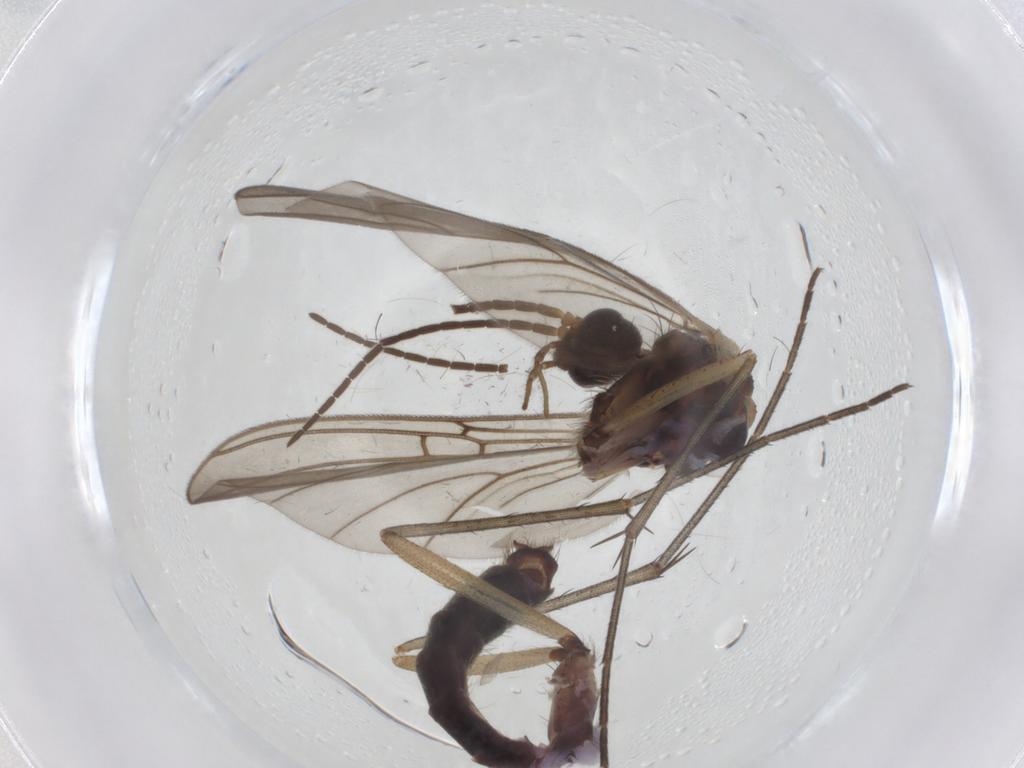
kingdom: Animalia
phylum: Arthropoda
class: Insecta
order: Diptera
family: Mycetophilidae
